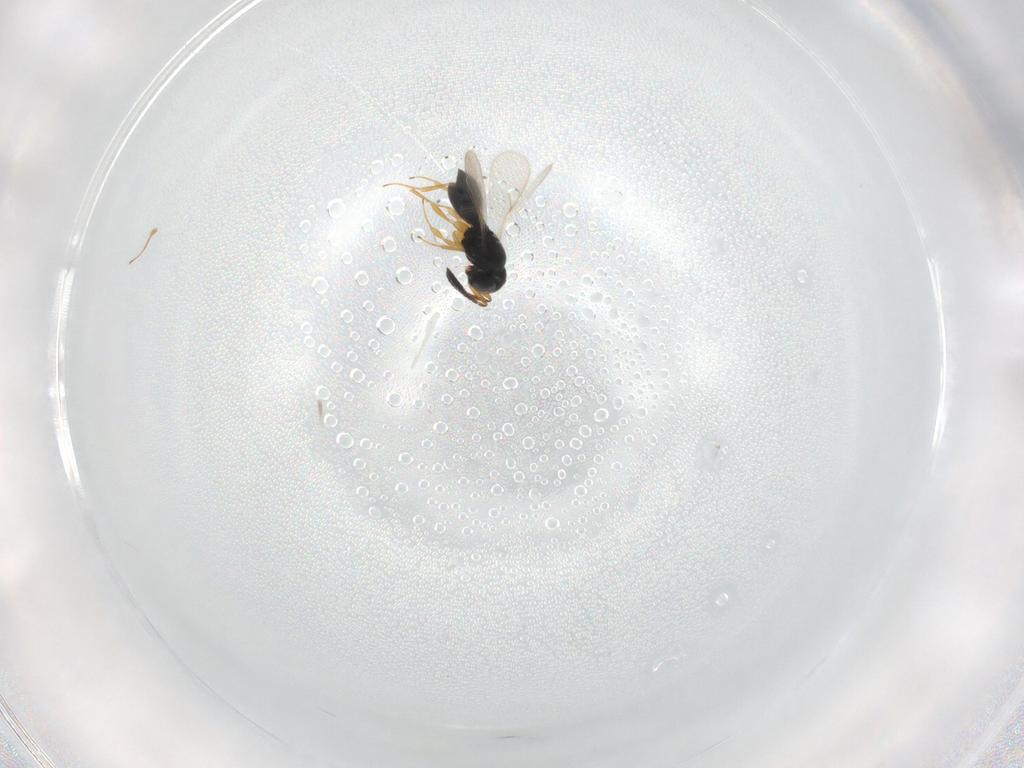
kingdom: Animalia
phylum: Arthropoda
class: Insecta
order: Hymenoptera
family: Scelionidae
